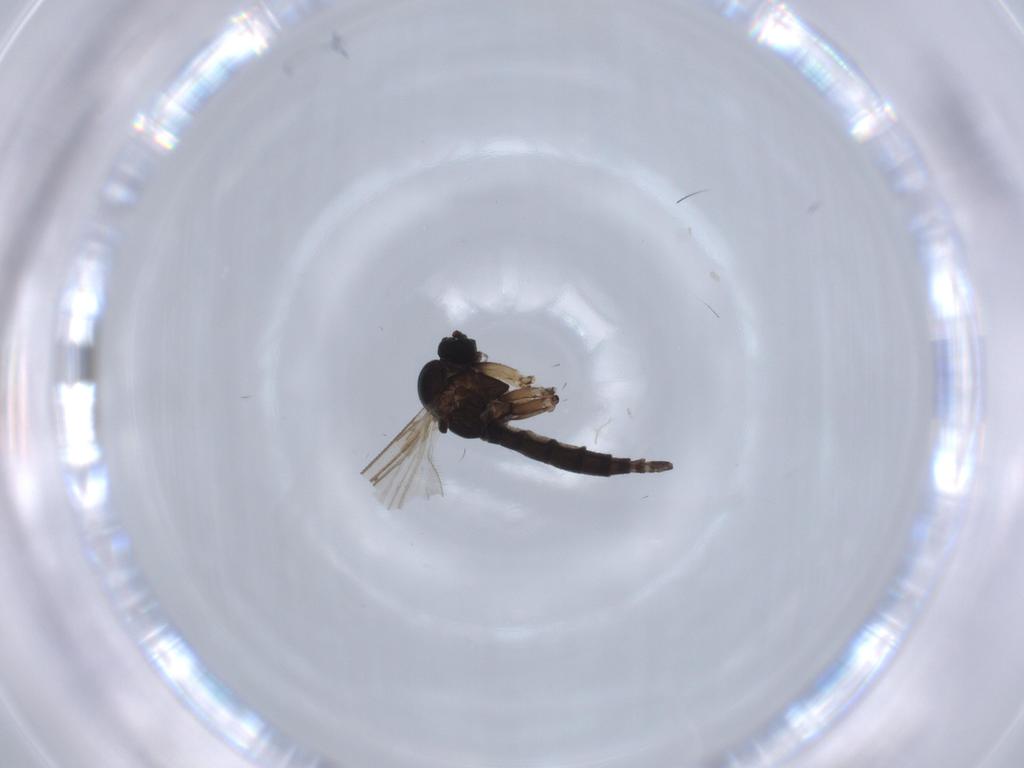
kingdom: Animalia
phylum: Arthropoda
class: Insecta
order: Diptera
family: Sciaridae
